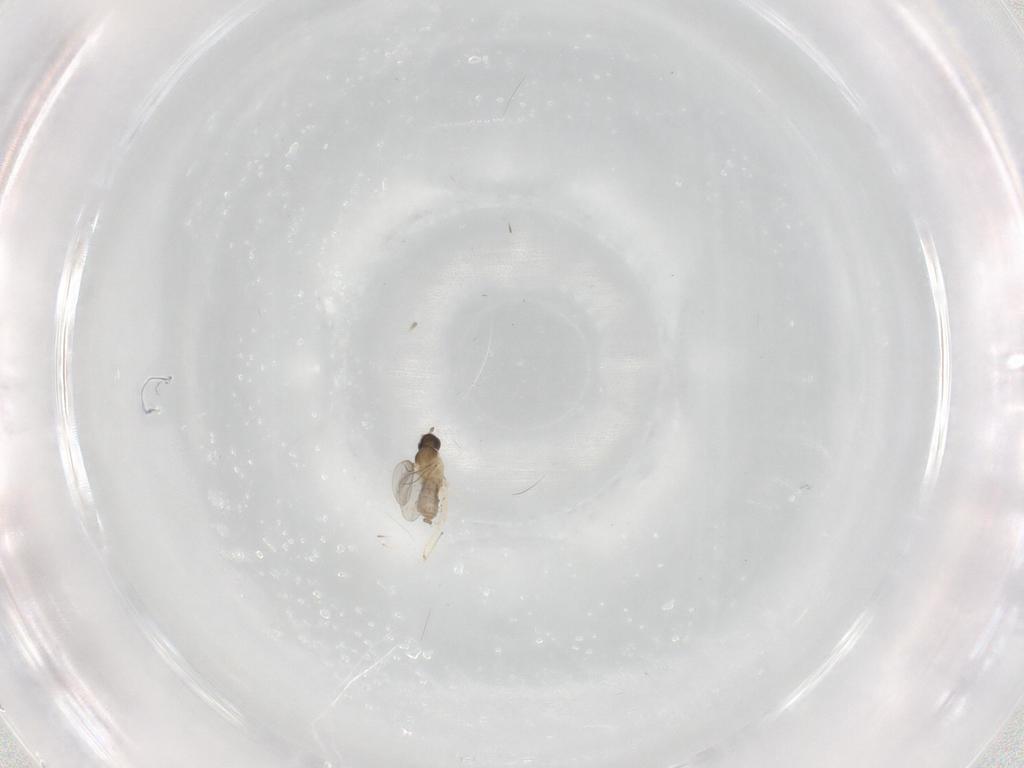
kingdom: Animalia
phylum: Arthropoda
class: Insecta
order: Diptera
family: Cecidomyiidae
